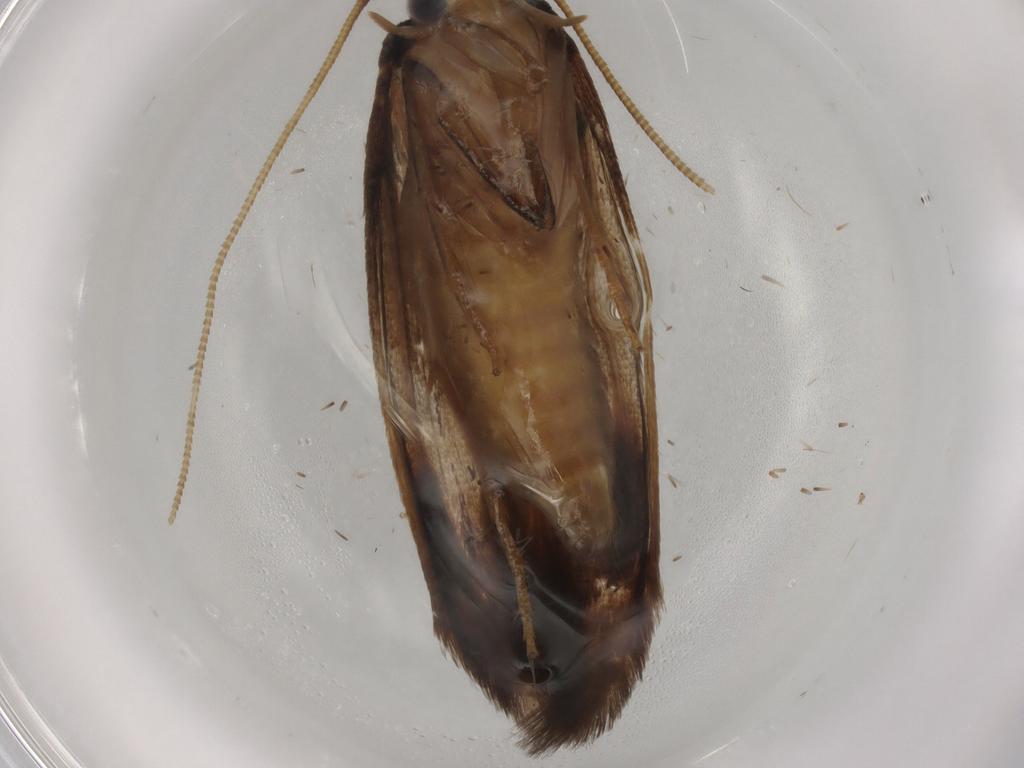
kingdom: Animalia
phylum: Arthropoda
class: Insecta
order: Lepidoptera
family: Tineidae
